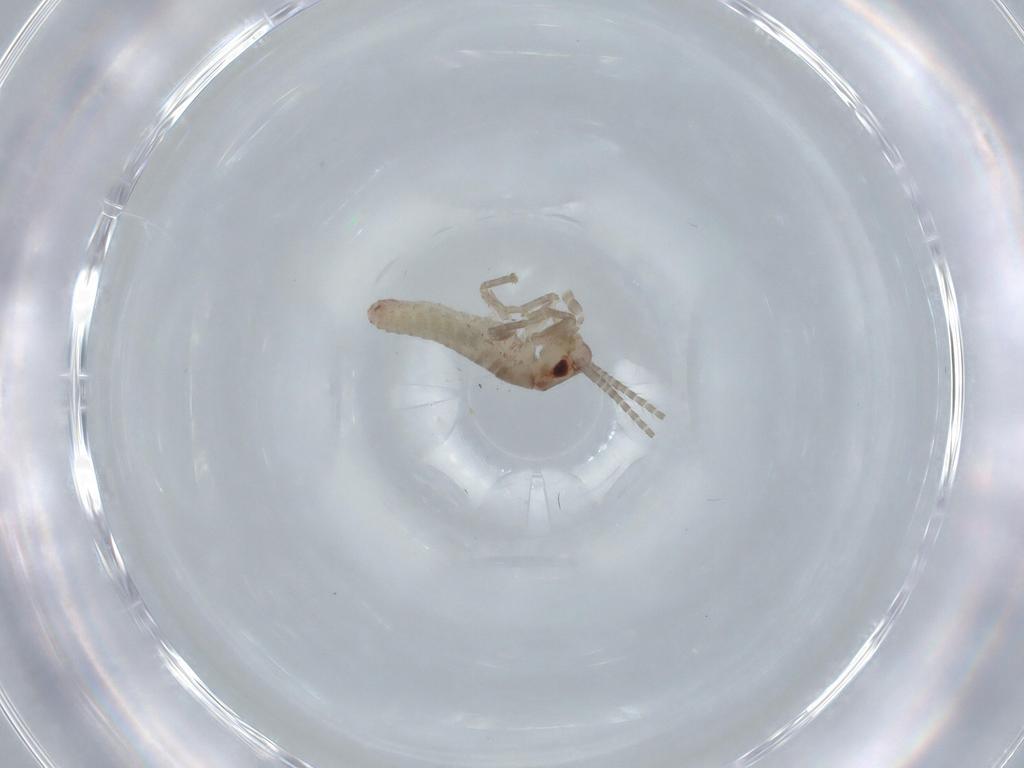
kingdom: Animalia
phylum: Arthropoda
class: Insecta
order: Orthoptera
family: Mogoplistidae
